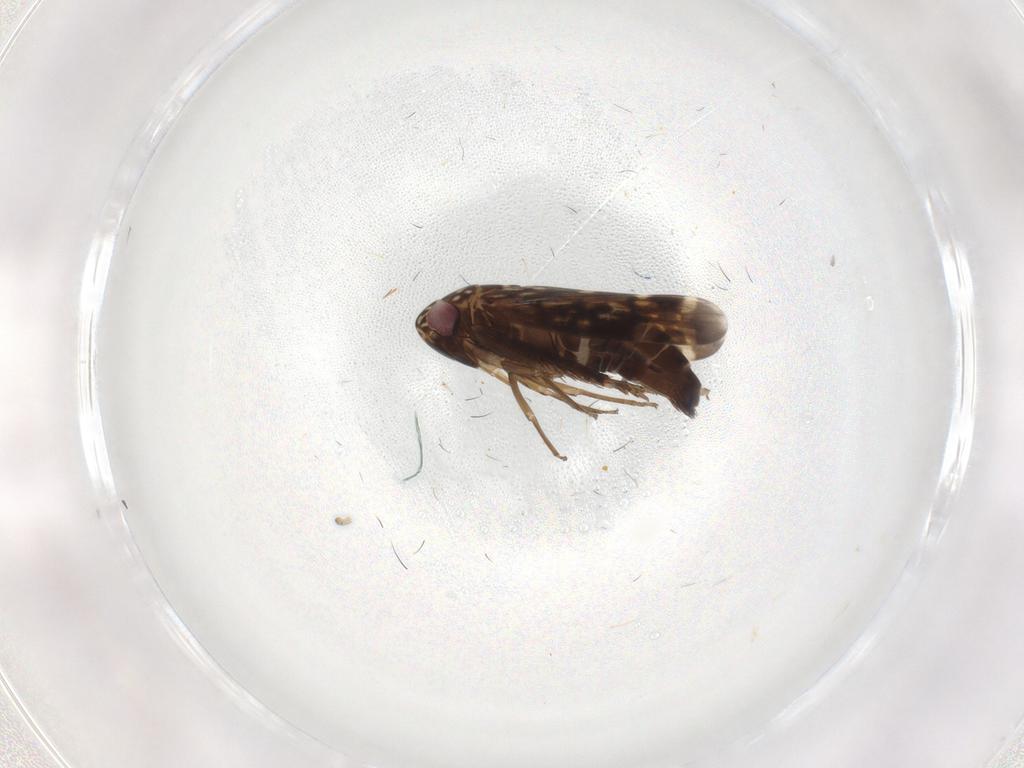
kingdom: Animalia
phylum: Arthropoda
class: Insecta
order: Hemiptera
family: Cicadellidae
